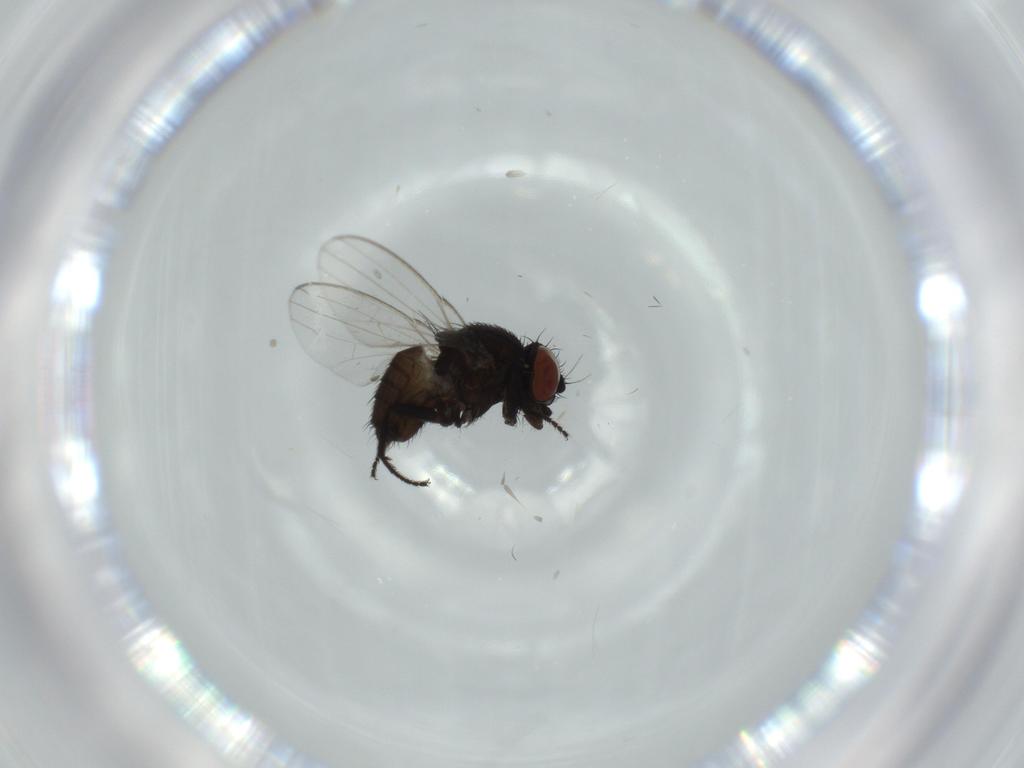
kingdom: Animalia
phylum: Arthropoda
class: Insecta
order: Diptera
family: Milichiidae
